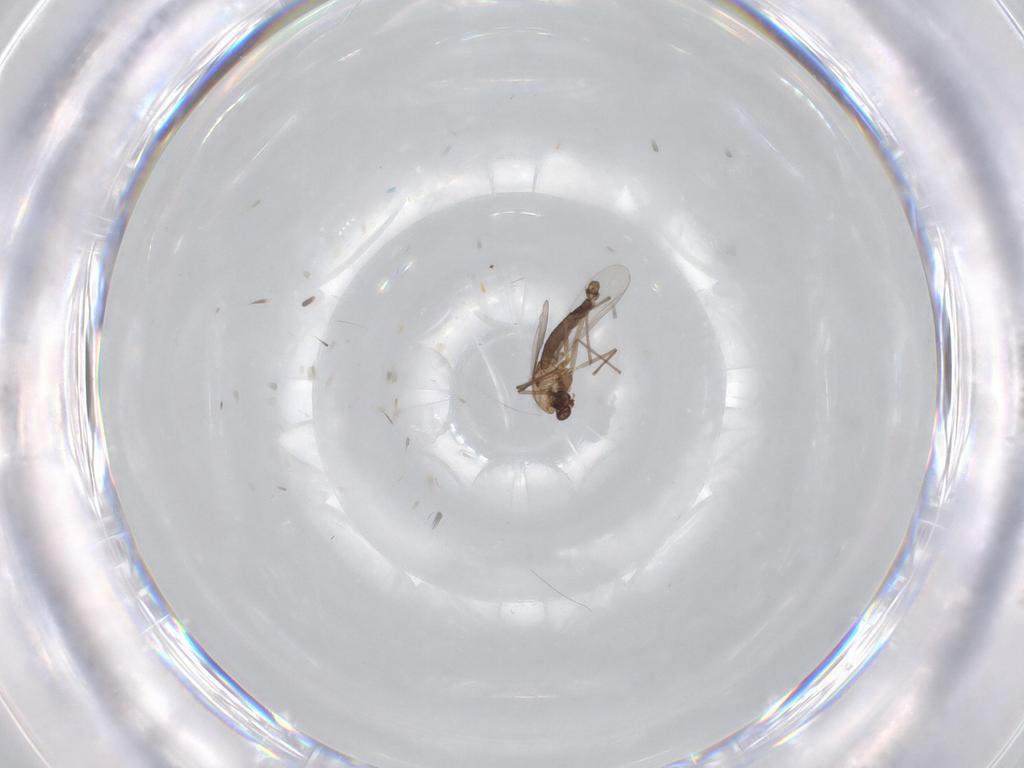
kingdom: Animalia
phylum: Arthropoda
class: Insecta
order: Diptera
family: Chironomidae
